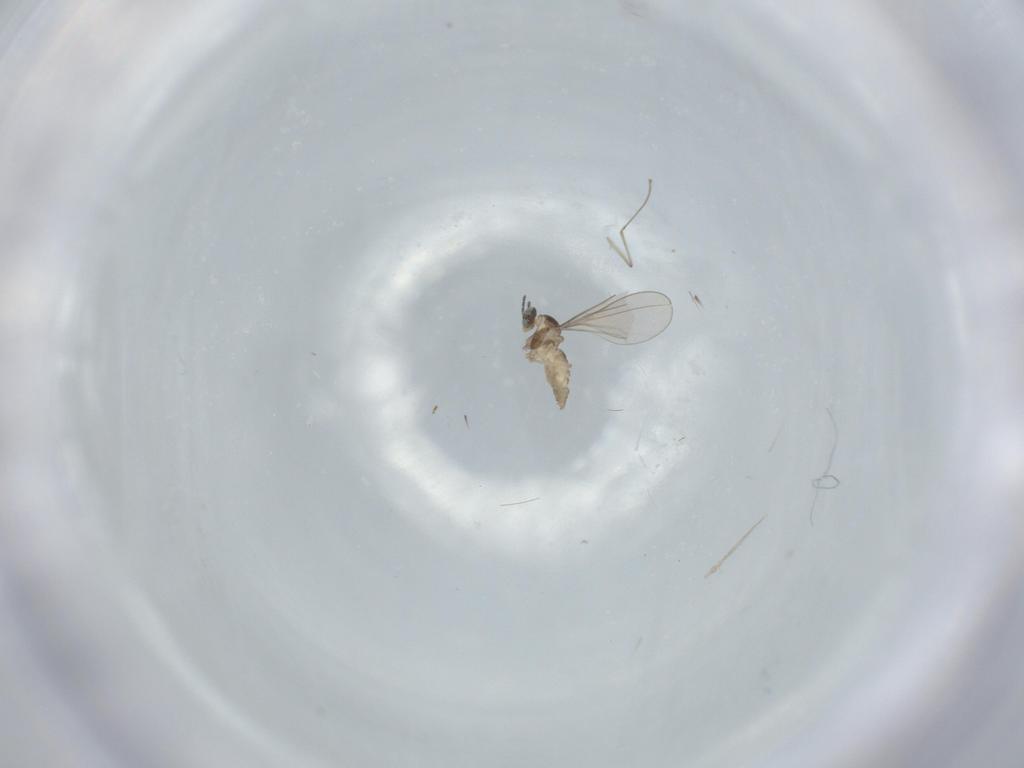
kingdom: Animalia
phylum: Arthropoda
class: Insecta
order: Diptera
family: Cecidomyiidae
